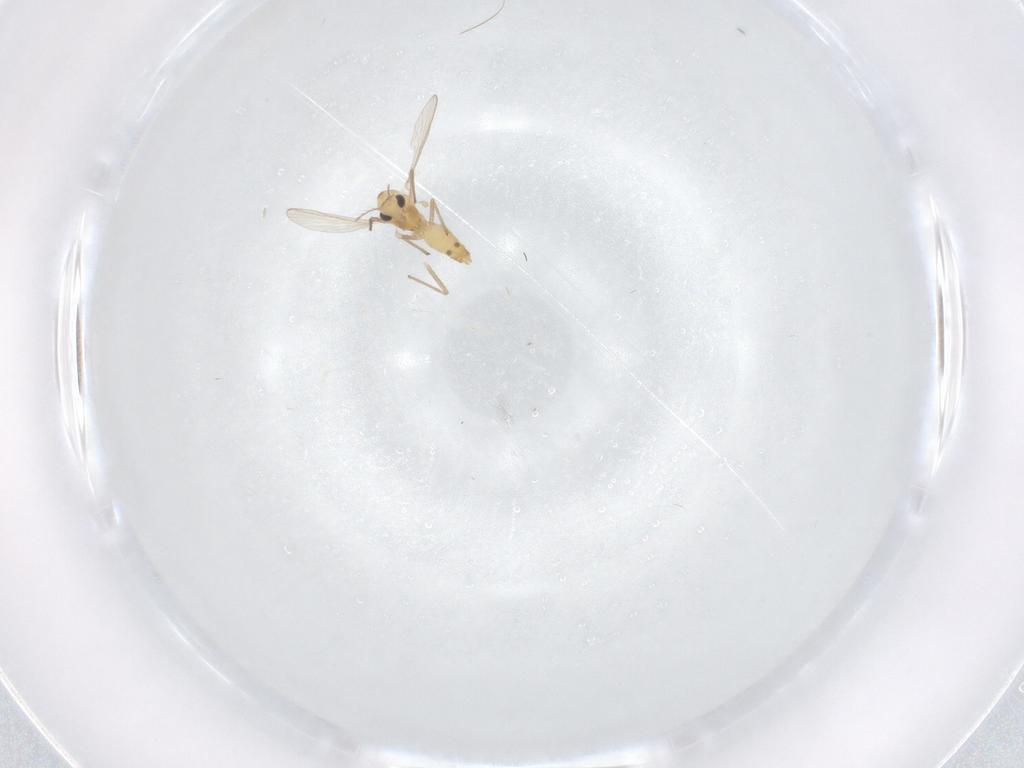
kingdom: Animalia
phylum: Arthropoda
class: Insecta
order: Diptera
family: Chironomidae
